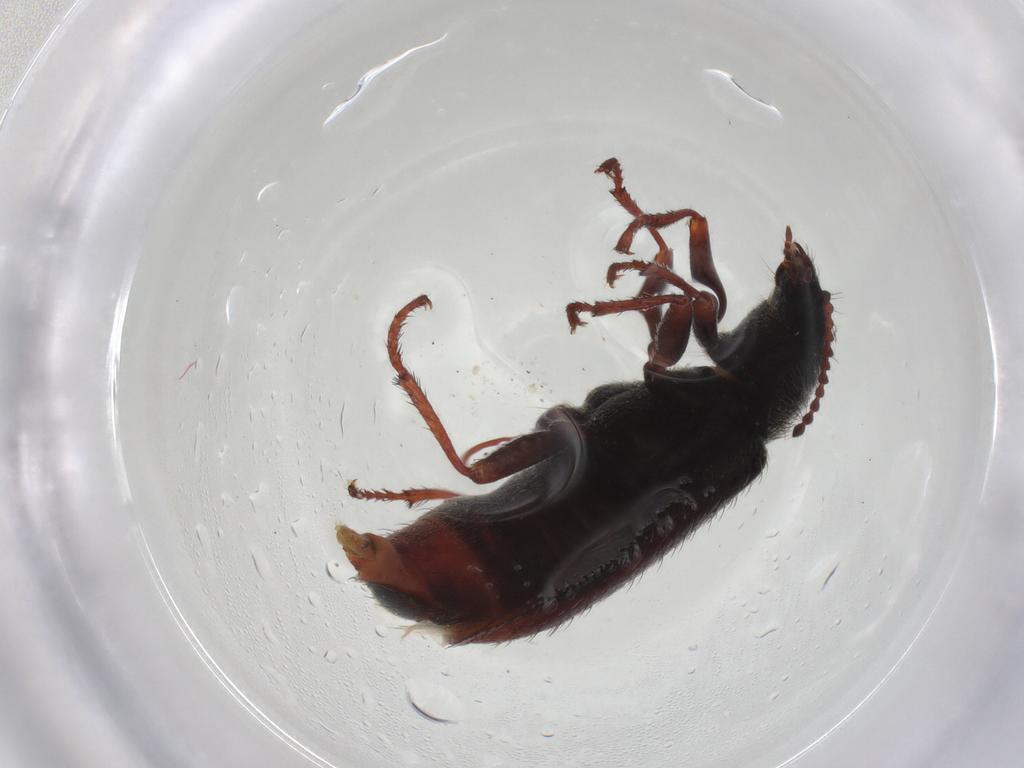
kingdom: Animalia
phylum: Arthropoda
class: Insecta
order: Coleoptera
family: Melyridae
